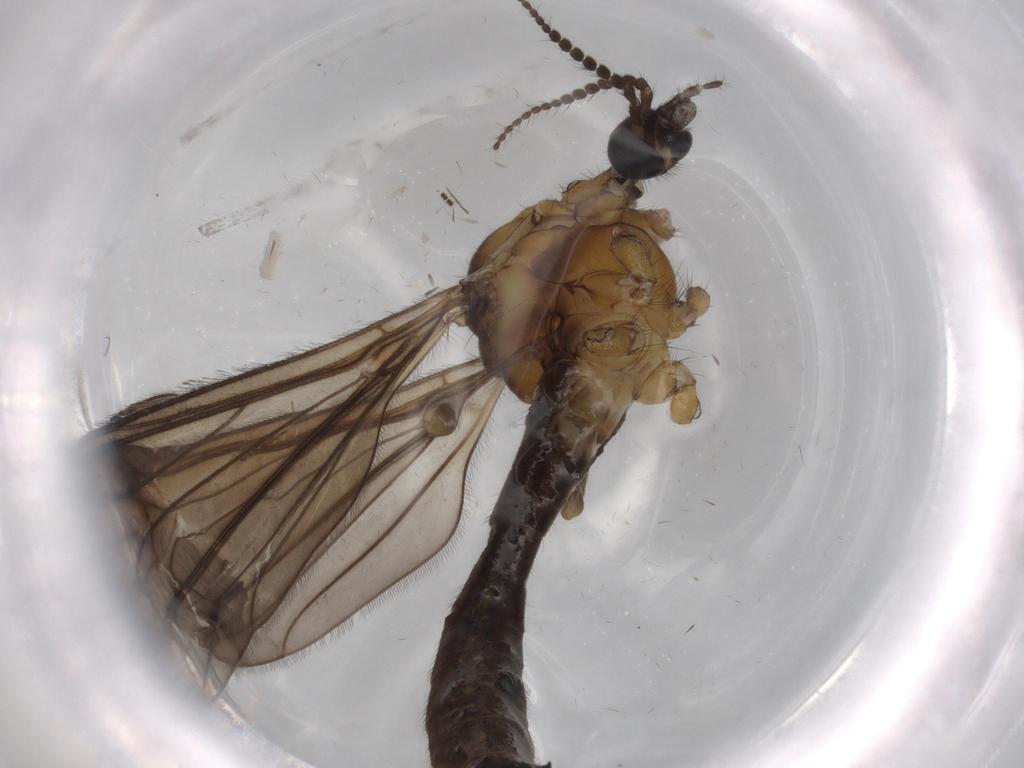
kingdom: Animalia
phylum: Arthropoda
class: Insecta
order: Diptera
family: Limoniidae
